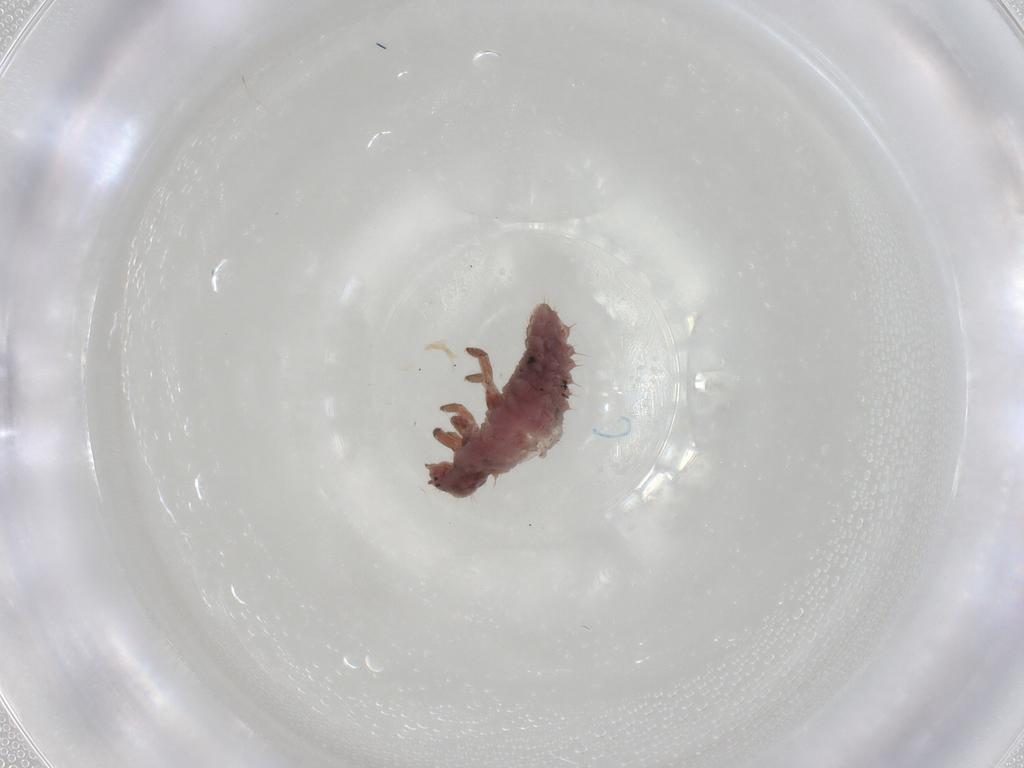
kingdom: Animalia
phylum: Arthropoda
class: Insecta
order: Coleoptera
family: Coccinellidae
